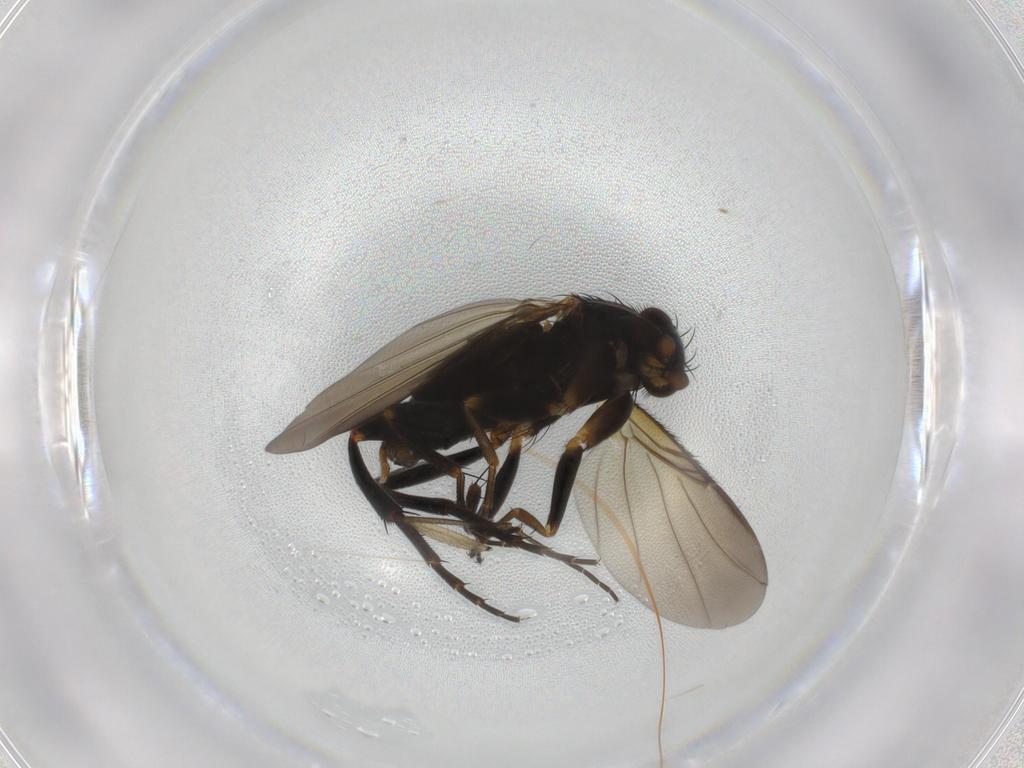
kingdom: Animalia
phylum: Arthropoda
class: Insecta
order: Diptera
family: Phoridae
